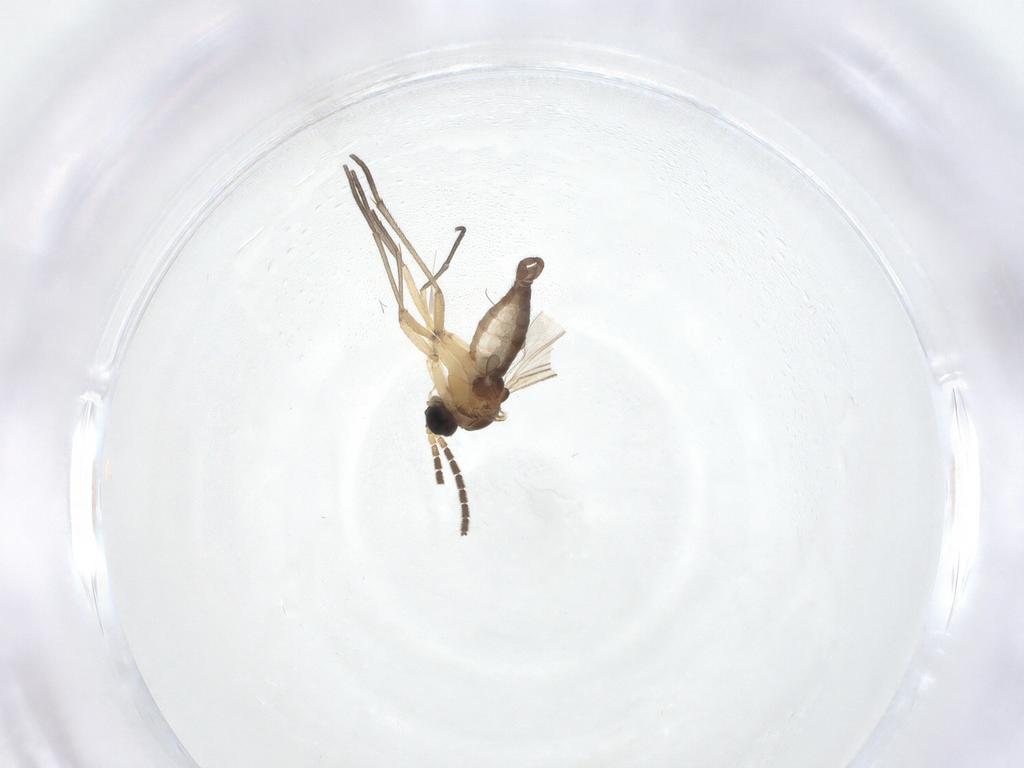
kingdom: Animalia
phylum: Arthropoda
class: Insecta
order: Diptera
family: Sciaridae
